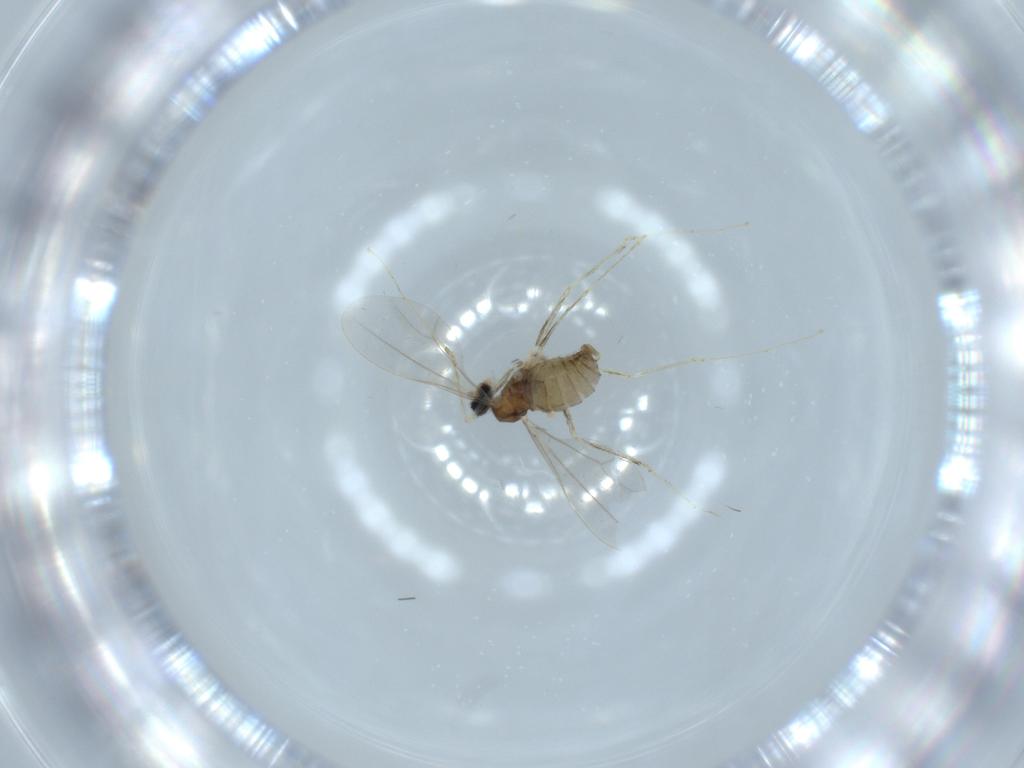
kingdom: Animalia
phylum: Arthropoda
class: Insecta
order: Diptera
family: Cecidomyiidae
